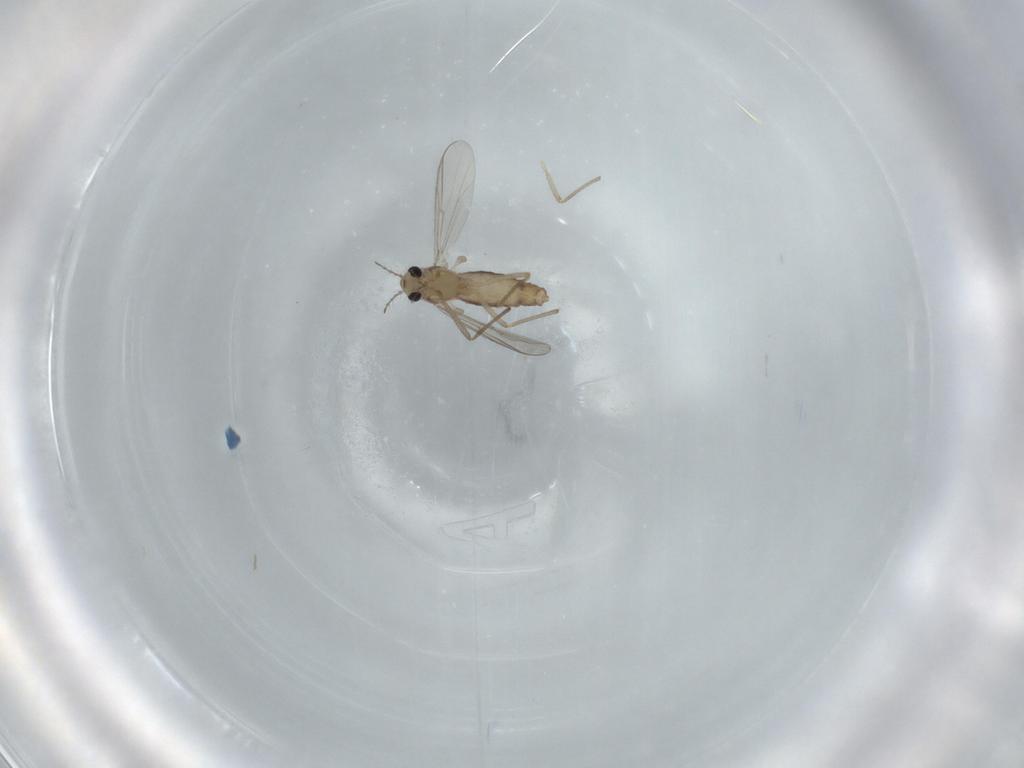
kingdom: Animalia
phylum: Arthropoda
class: Insecta
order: Diptera
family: Chironomidae
